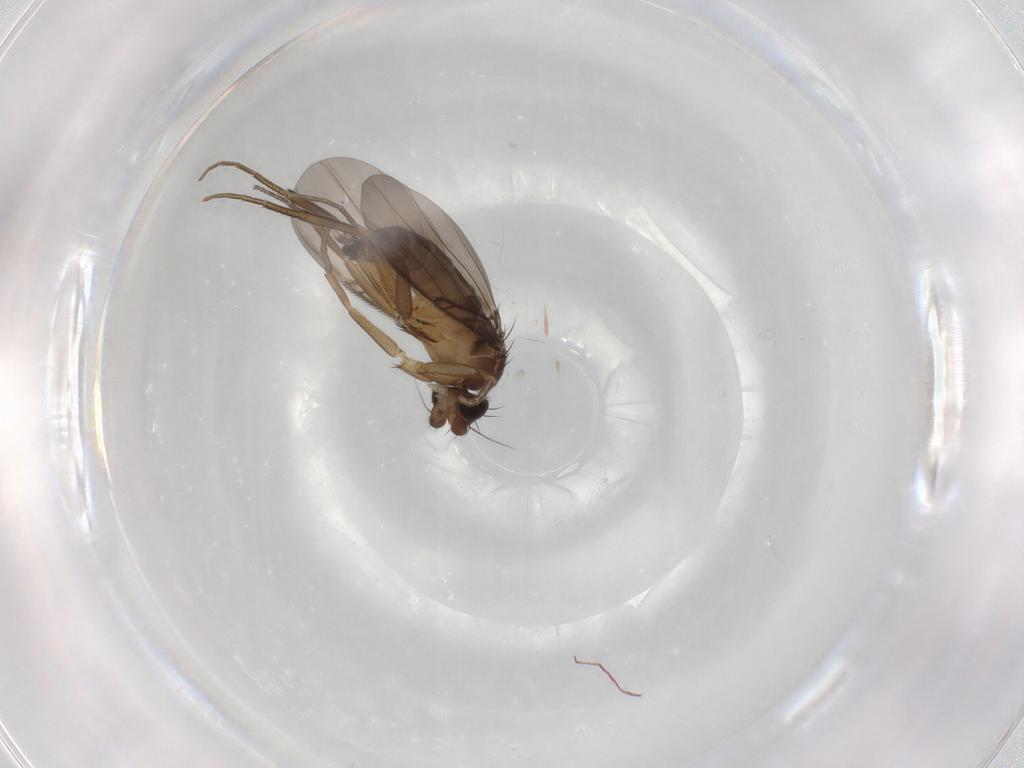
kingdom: Animalia
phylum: Arthropoda
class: Insecta
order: Diptera
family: Phoridae
